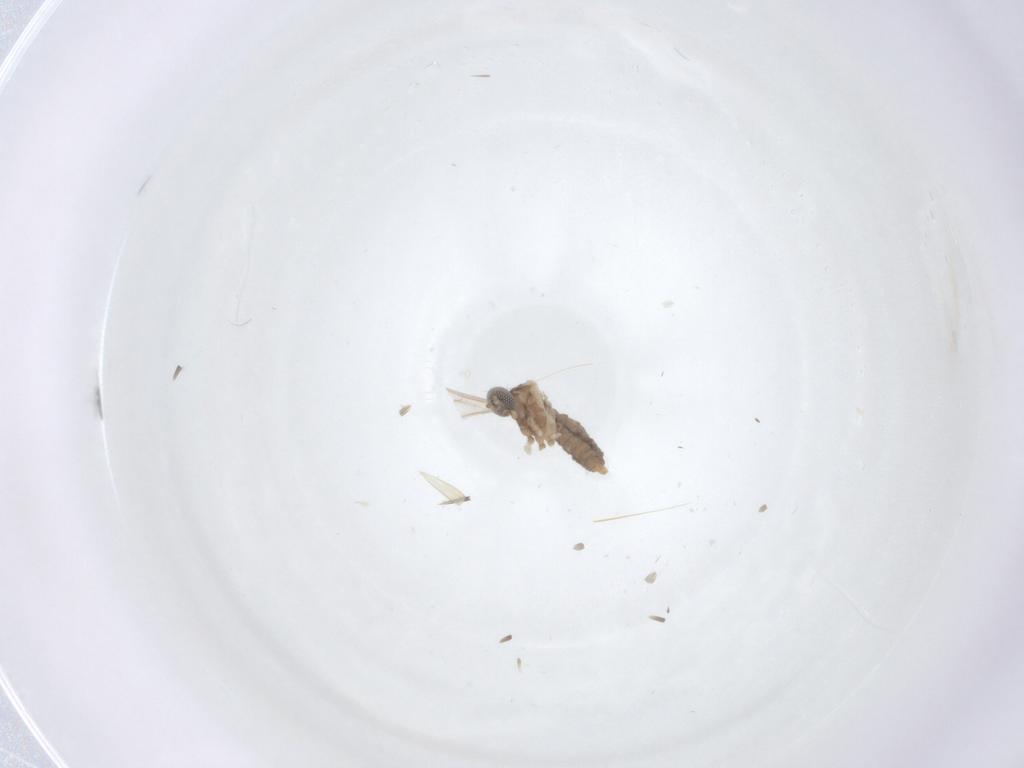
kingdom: Animalia
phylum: Arthropoda
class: Insecta
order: Diptera
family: Cecidomyiidae
